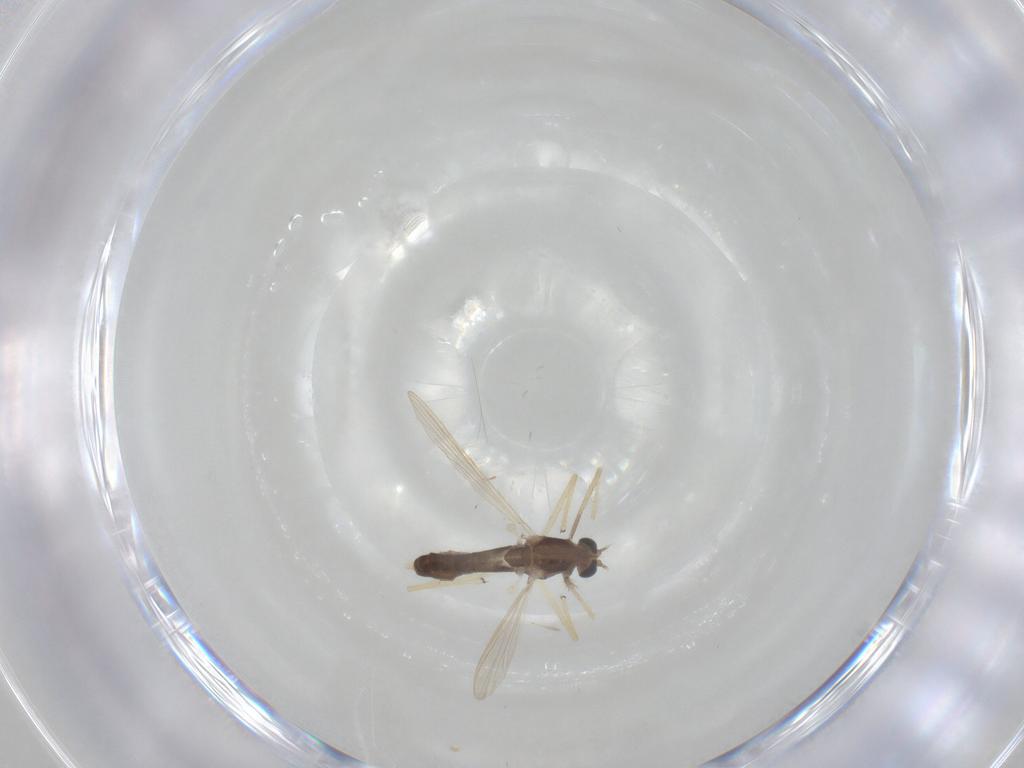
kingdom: Animalia
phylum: Arthropoda
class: Insecta
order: Diptera
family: Chironomidae
